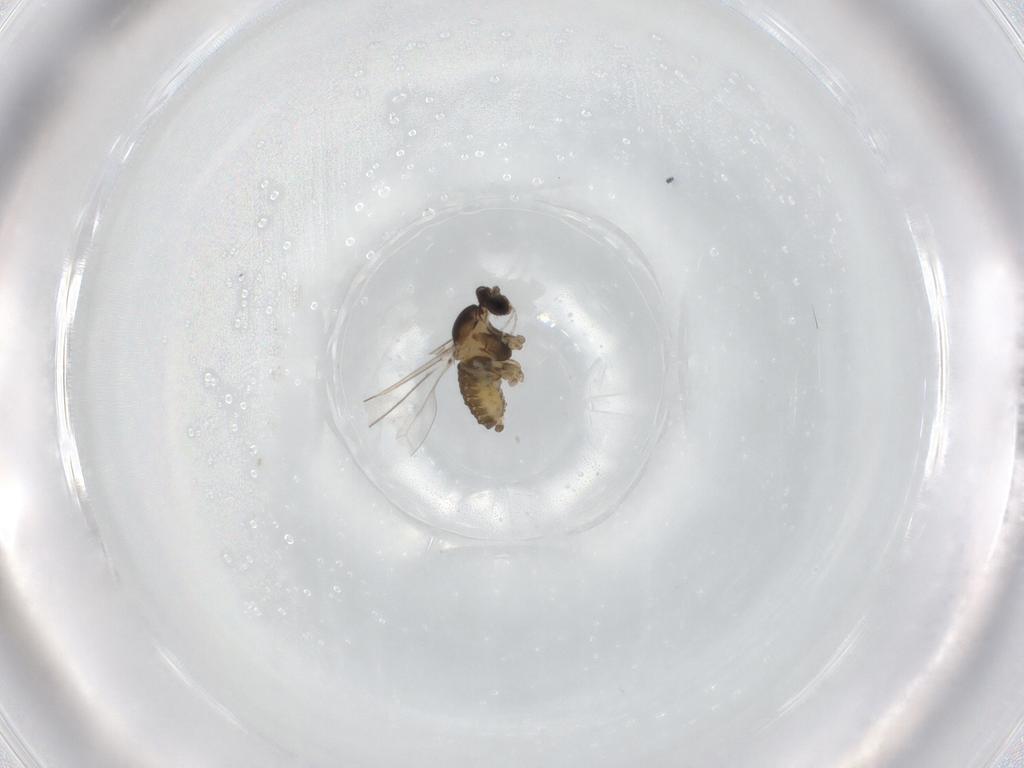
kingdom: Animalia
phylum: Arthropoda
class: Insecta
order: Diptera
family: Cecidomyiidae
